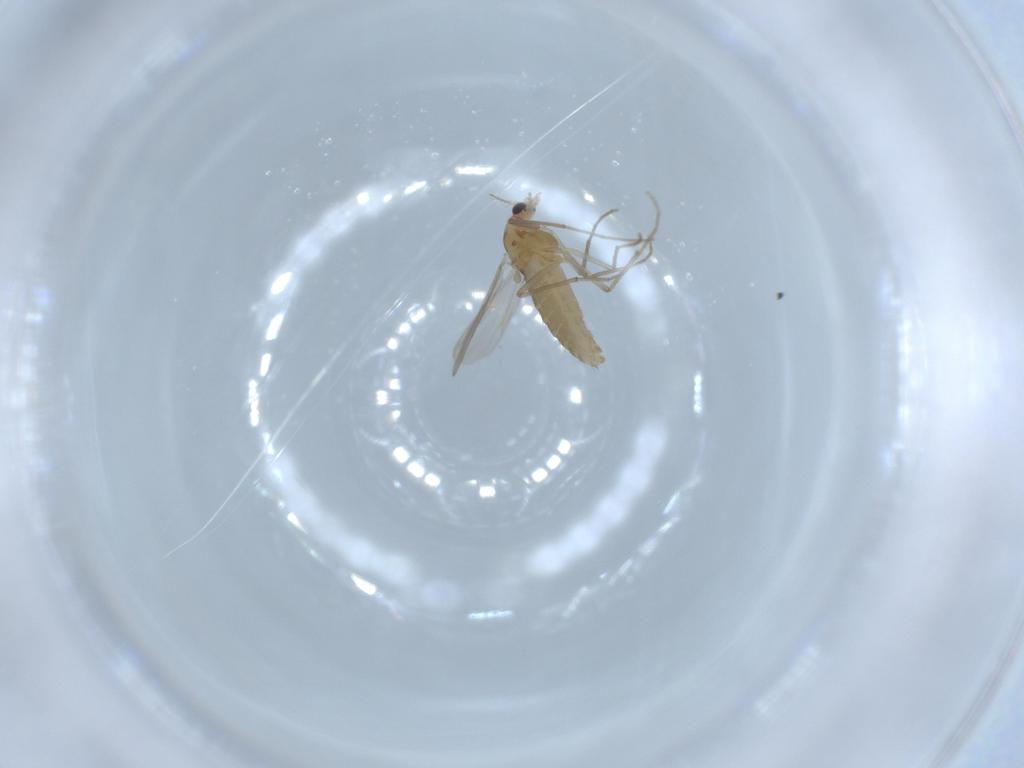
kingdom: Animalia
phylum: Arthropoda
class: Insecta
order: Diptera
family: Chironomidae
